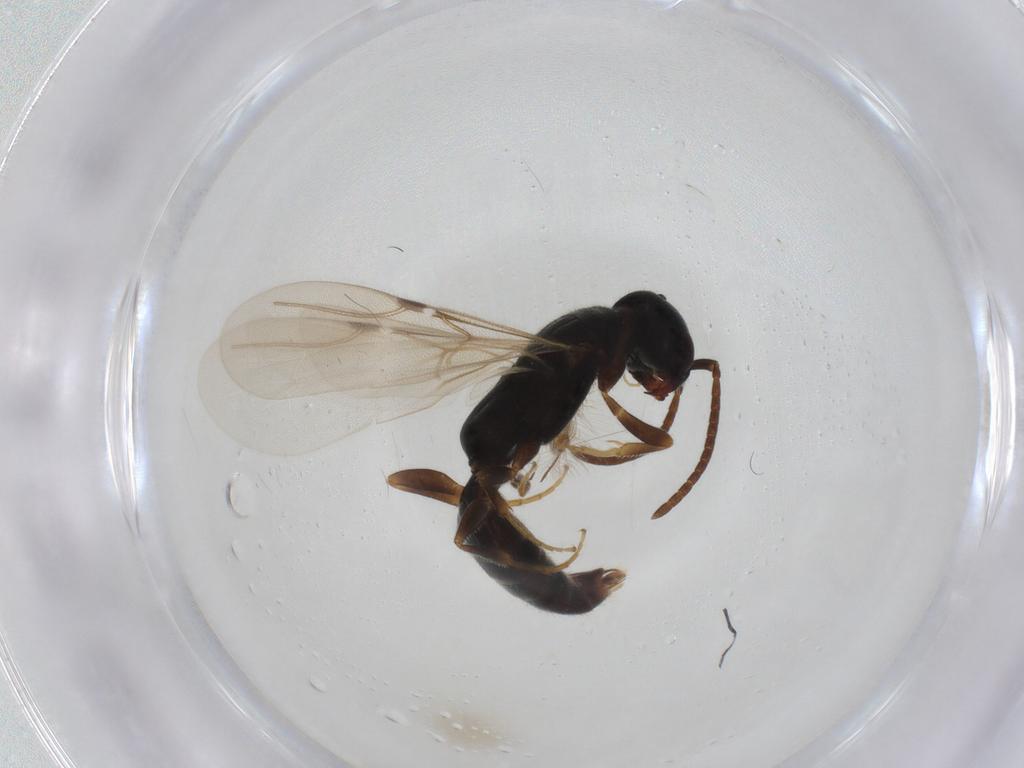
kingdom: Animalia
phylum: Arthropoda
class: Insecta
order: Hymenoptera
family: Bethylidae
